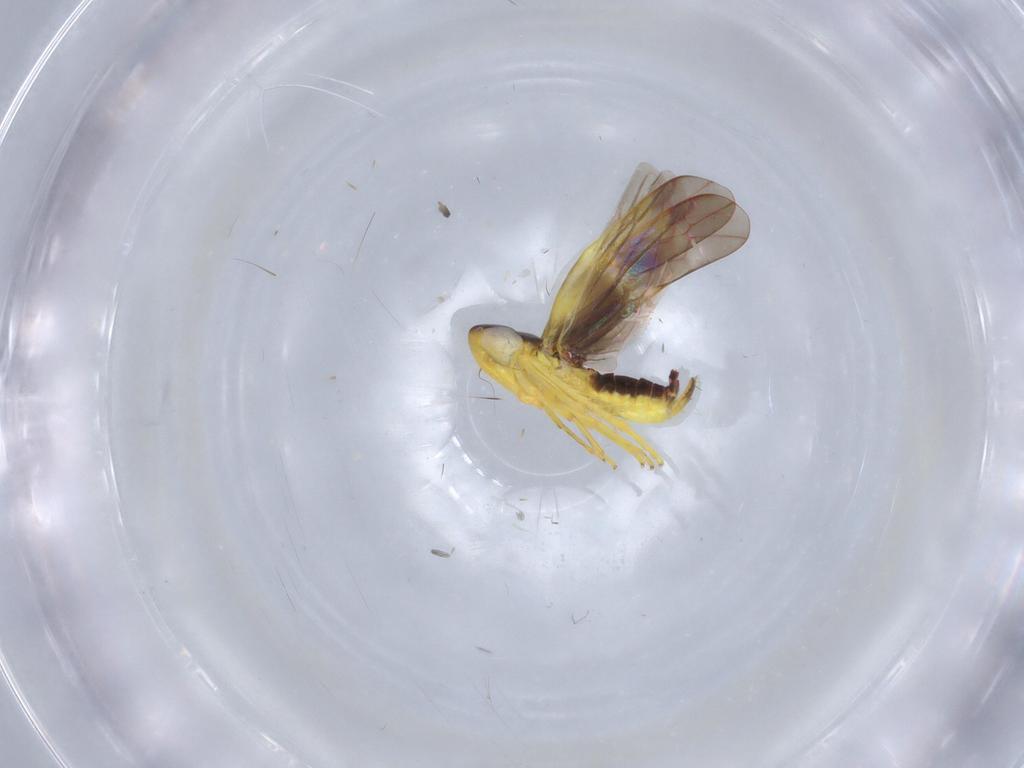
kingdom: Animalia
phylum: Arthropoda
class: Insecta
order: Hemiptera
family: Cicadellidae
